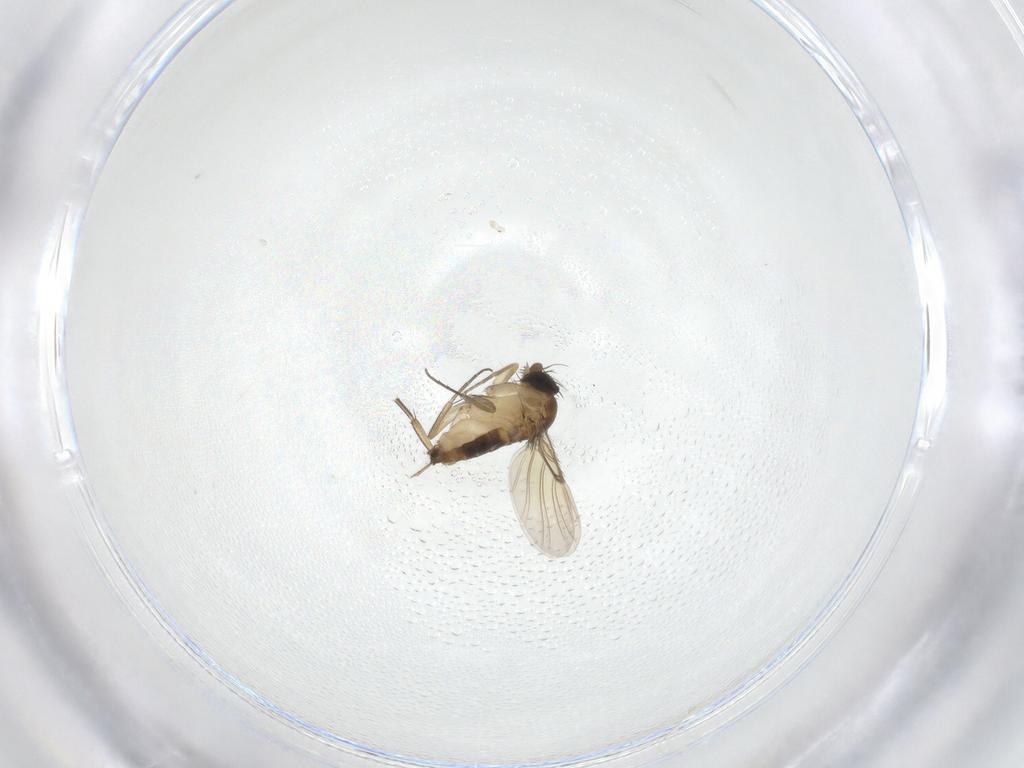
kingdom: Animalia
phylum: Arthropoda
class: Insecta
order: Diptera
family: Phoridae
